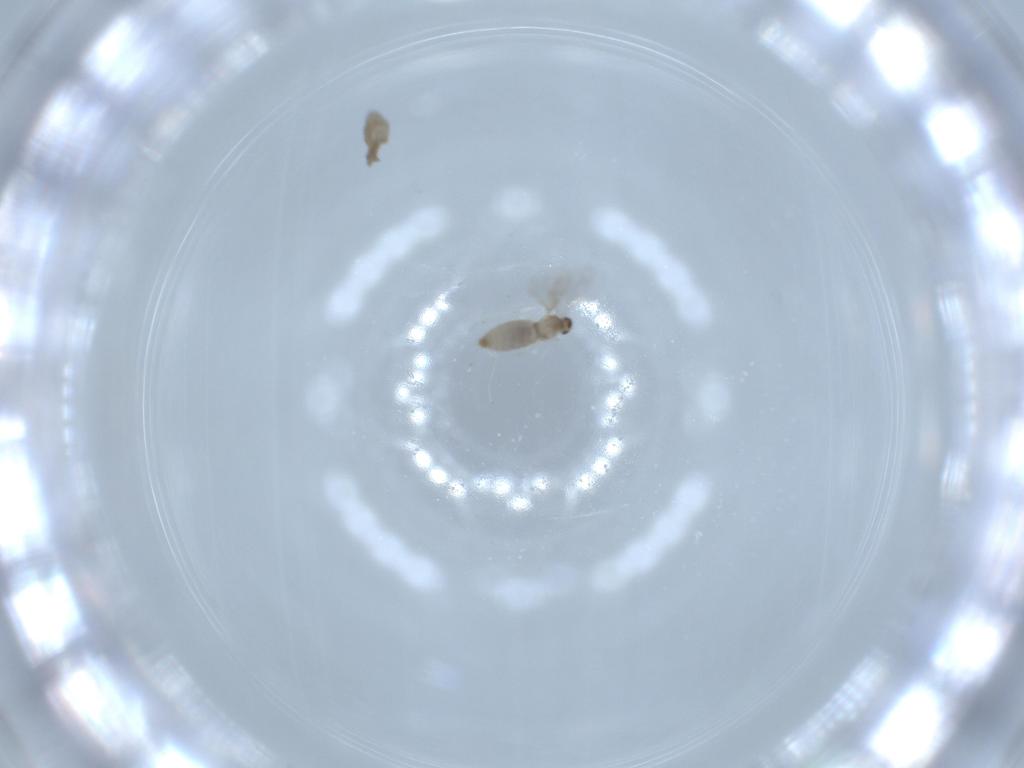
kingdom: Animalia
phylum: Arthropoda
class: Insecta
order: Diptera
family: Cecidomyiidae
